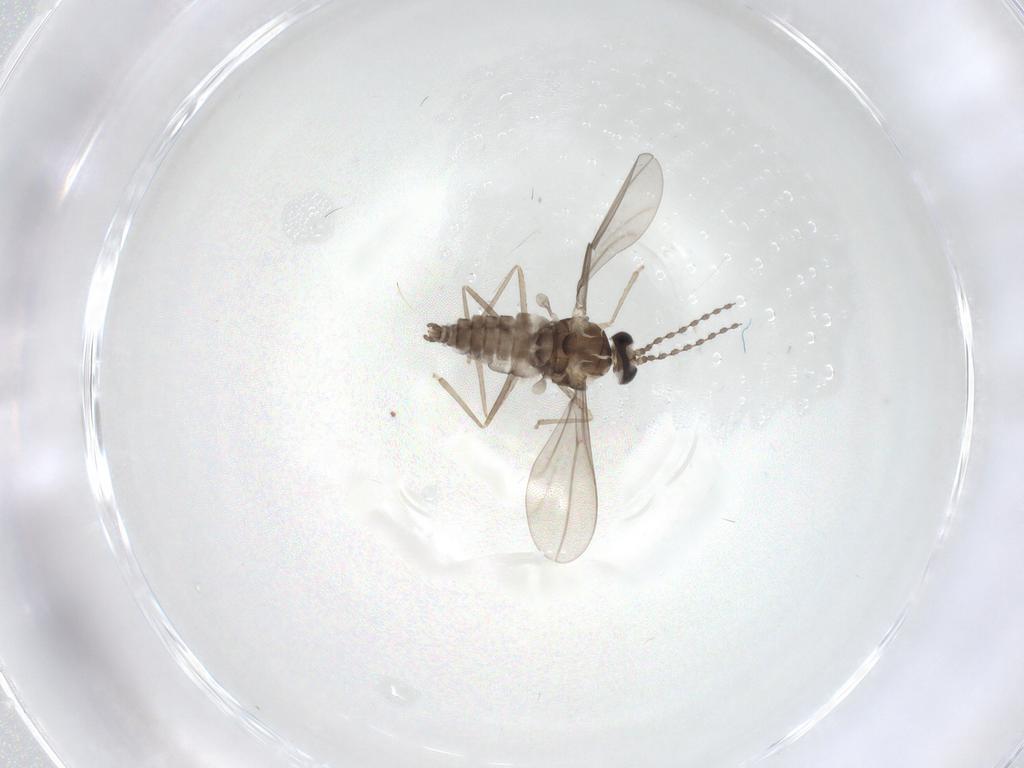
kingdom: Animalia
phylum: Arthropoda
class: Insecta
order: Diptera
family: Cecidomyiidae
